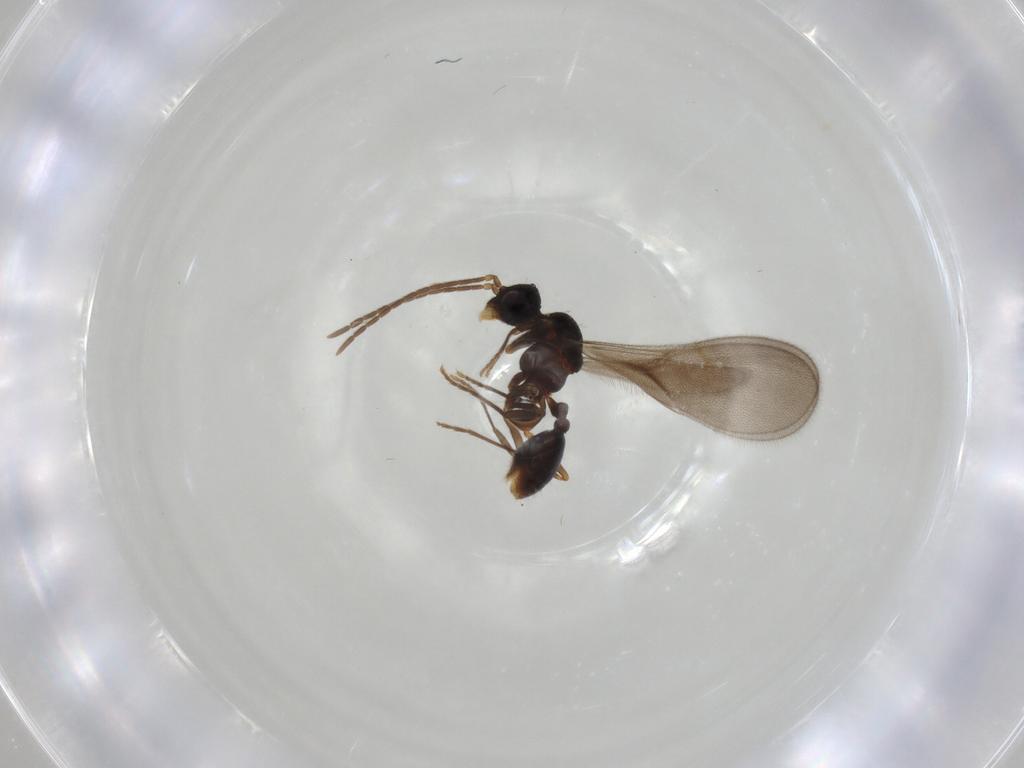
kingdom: Animalia
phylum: Arthropoda
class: Insecta
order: Hymenoptera
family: Formicidae
